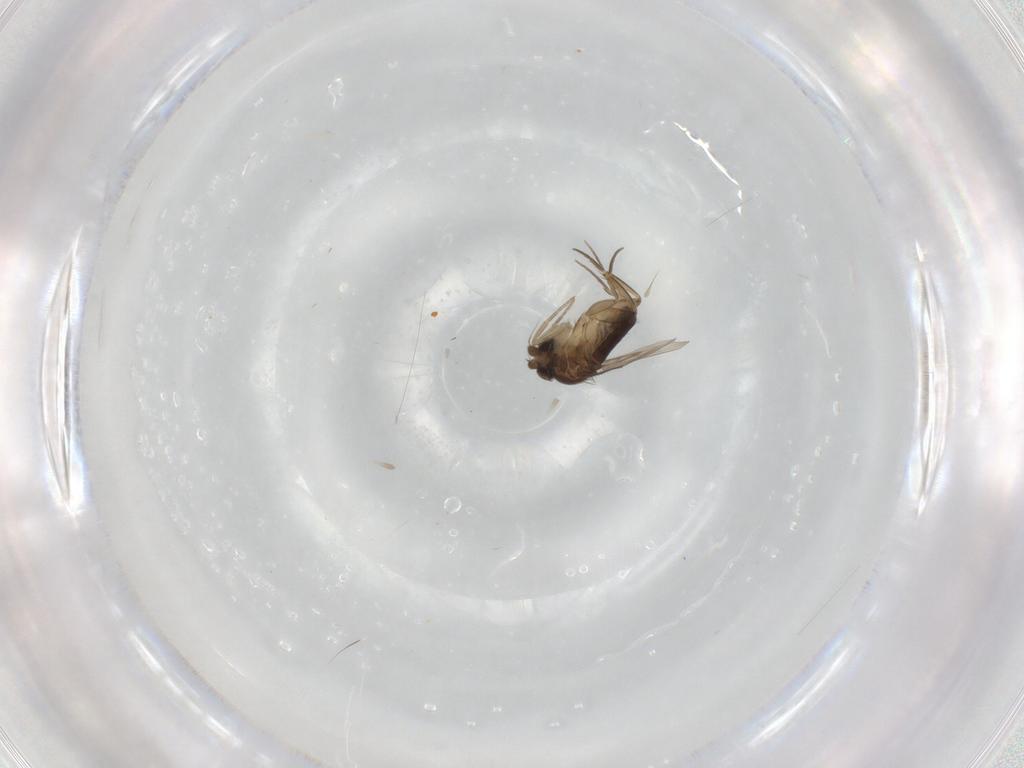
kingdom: Animalia
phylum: Arthropoda
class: Insecta
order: Diptera
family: Phoridae
